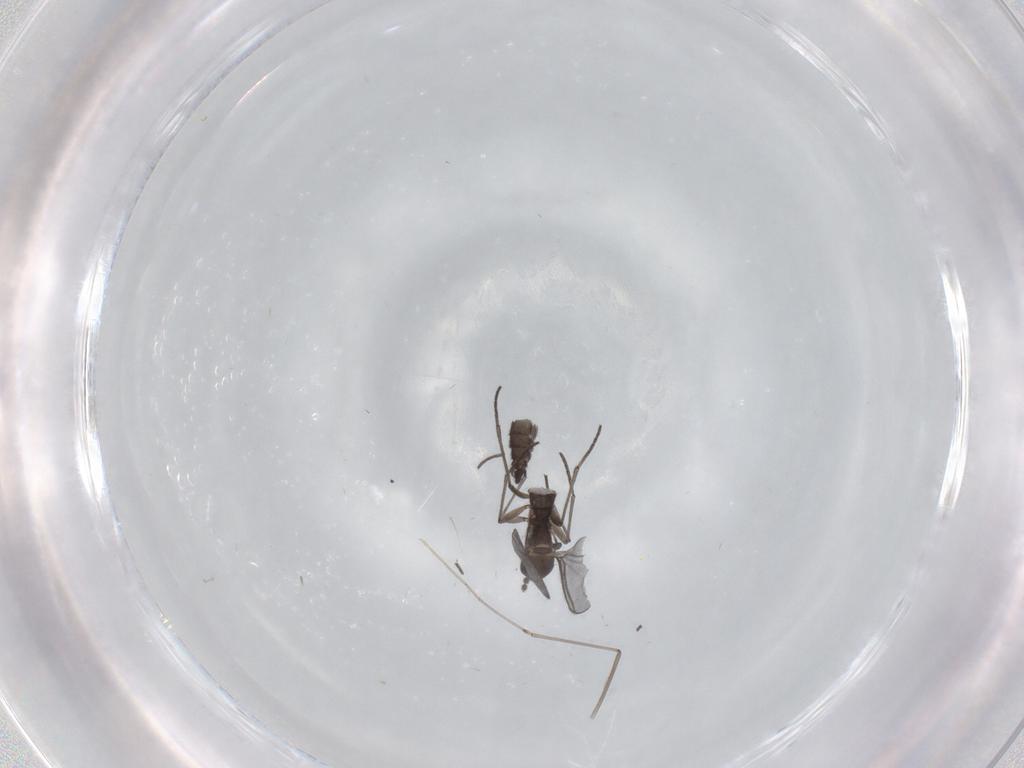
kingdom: Animalia
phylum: Arthropoda
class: Insecta
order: Diptera
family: Sciaridae
